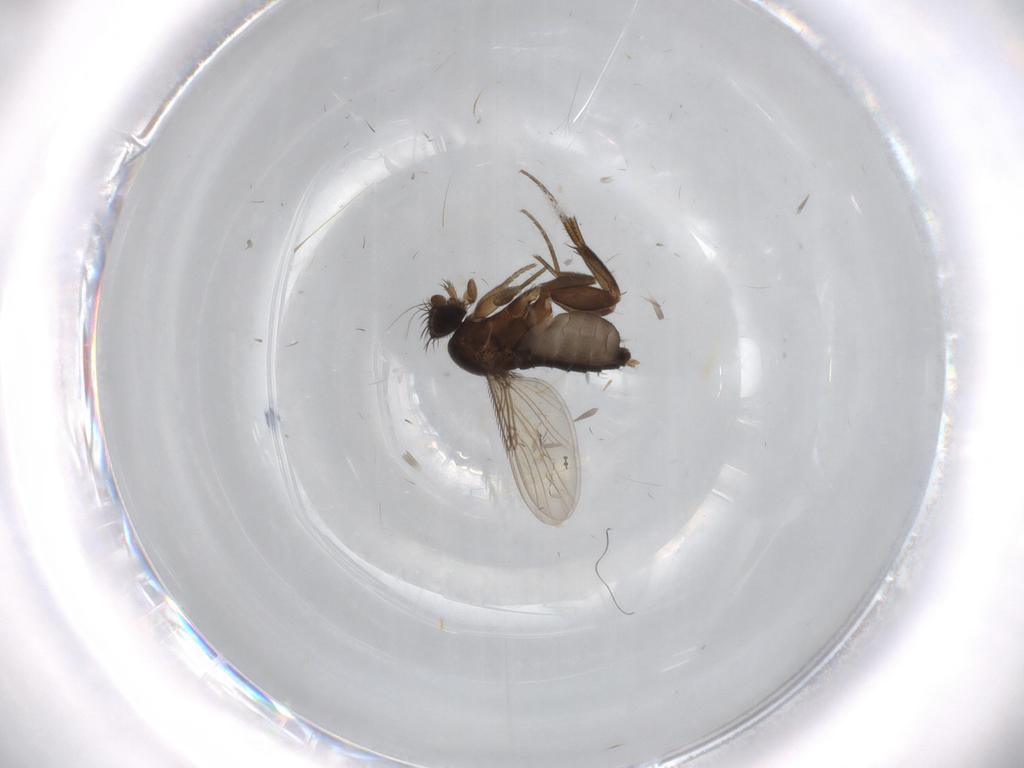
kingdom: Animalia
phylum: Arthropoda
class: Insecta
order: Diptera
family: Phoridae
